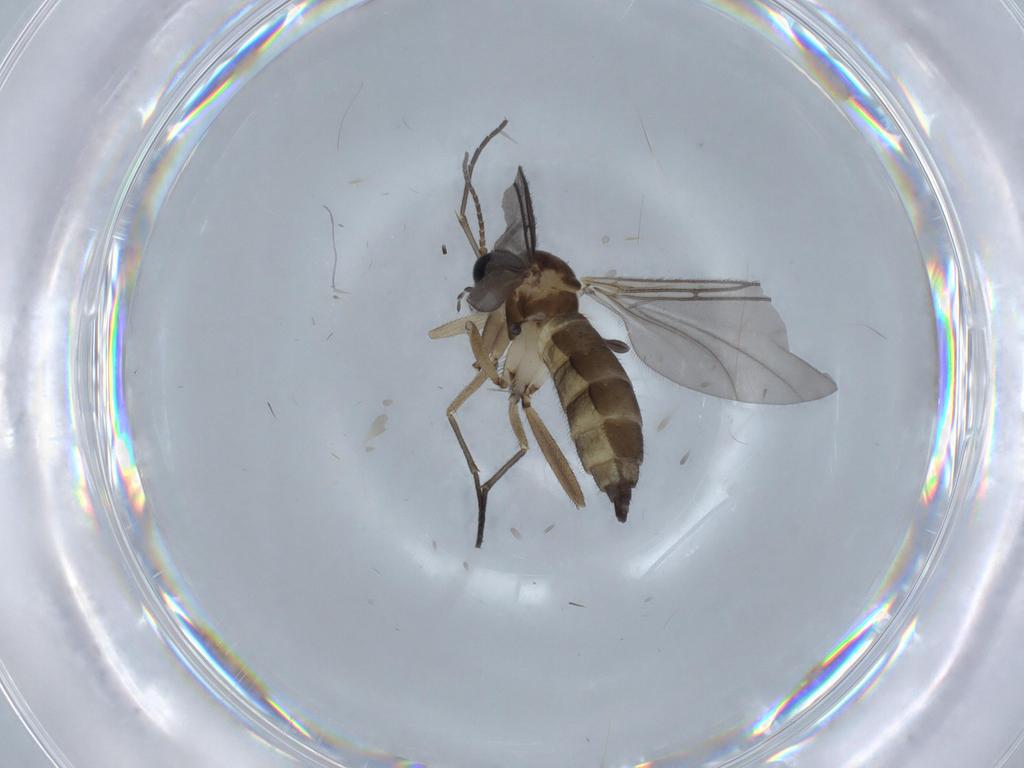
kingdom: Animalia
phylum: Arthropoda
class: Insecta
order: Diptera
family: Sciaridae
